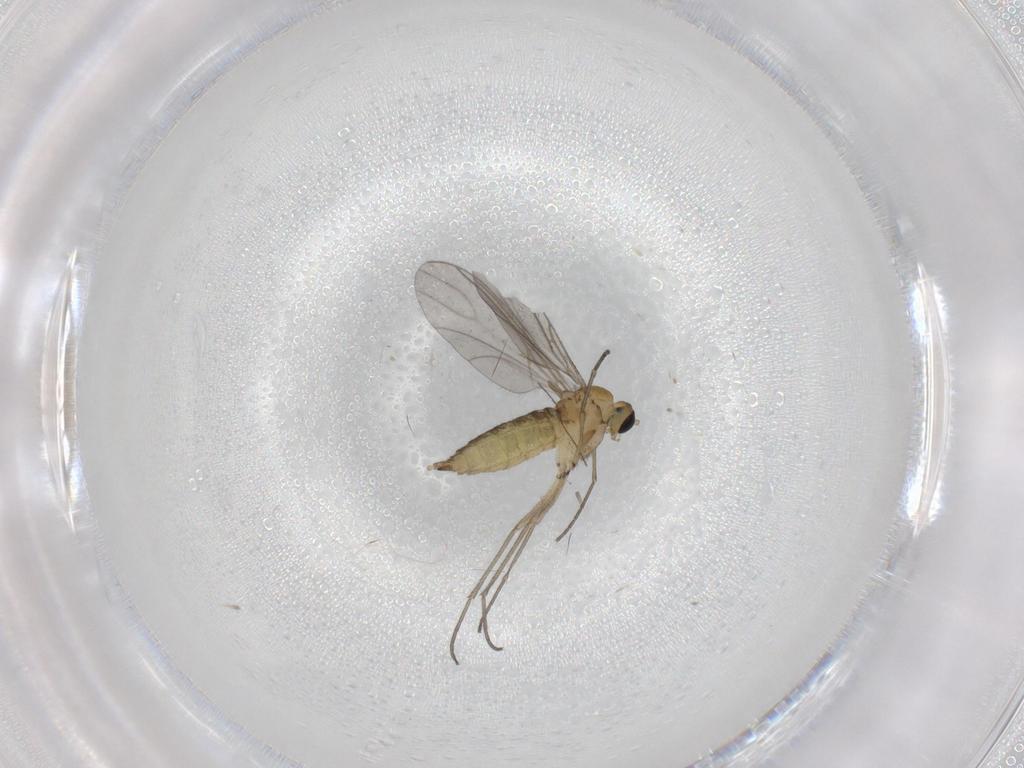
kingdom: Animalia
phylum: Arthropoda
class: Insecta
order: Diptera
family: Sciaridae
